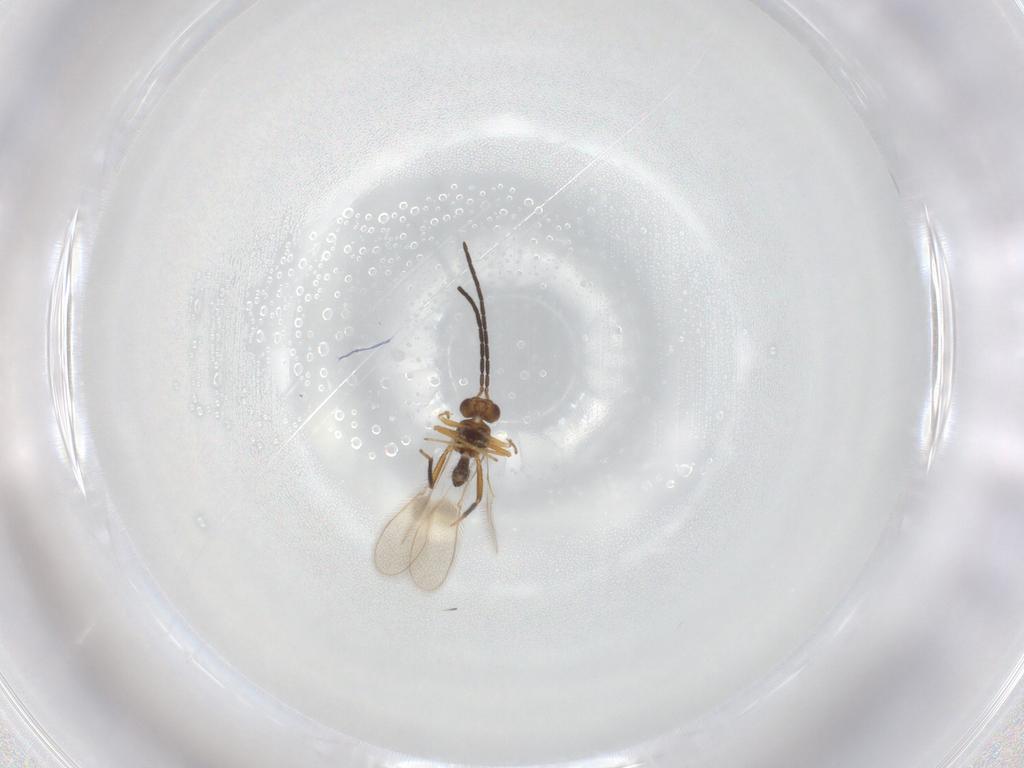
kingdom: Animalia
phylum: Arthropoda
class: Insecta
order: Hymenoptera
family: Mymaridae
